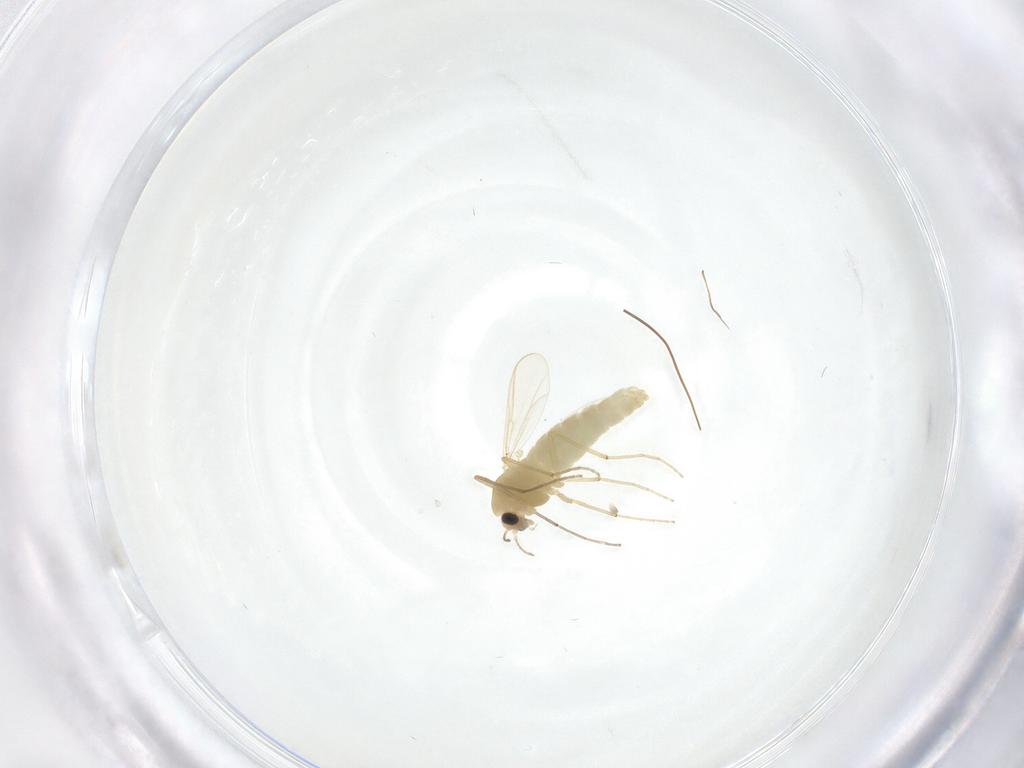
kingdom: Animalia
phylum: Arthropoda
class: Insecta
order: Diptera
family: Chironomidae
